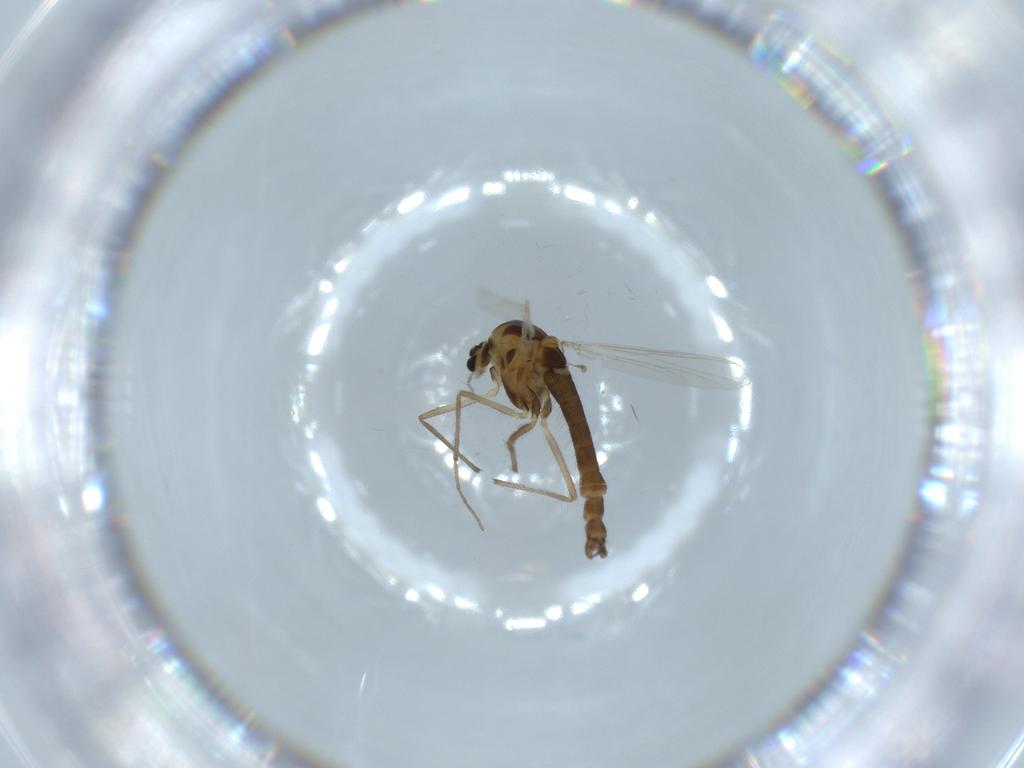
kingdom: Animalia
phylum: Arthropoda
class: Insecta
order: Diptera
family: Chironomidae
